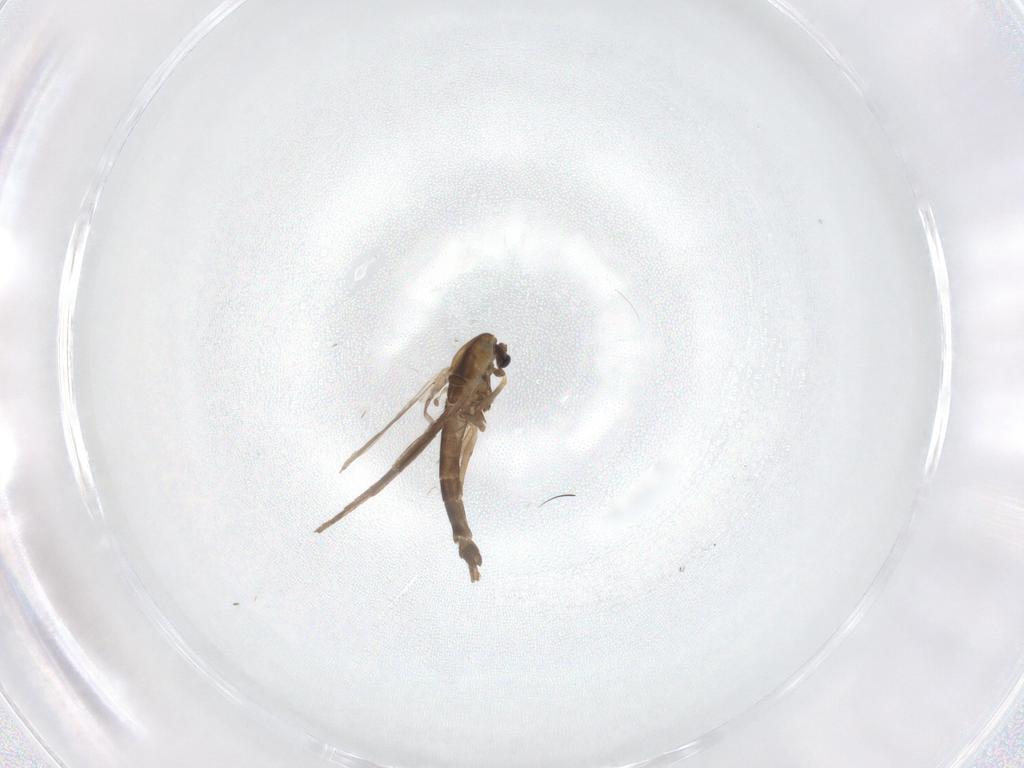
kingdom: Animalia
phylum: Arthropoda
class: Insecta
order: Diptera
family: Chironomidae
